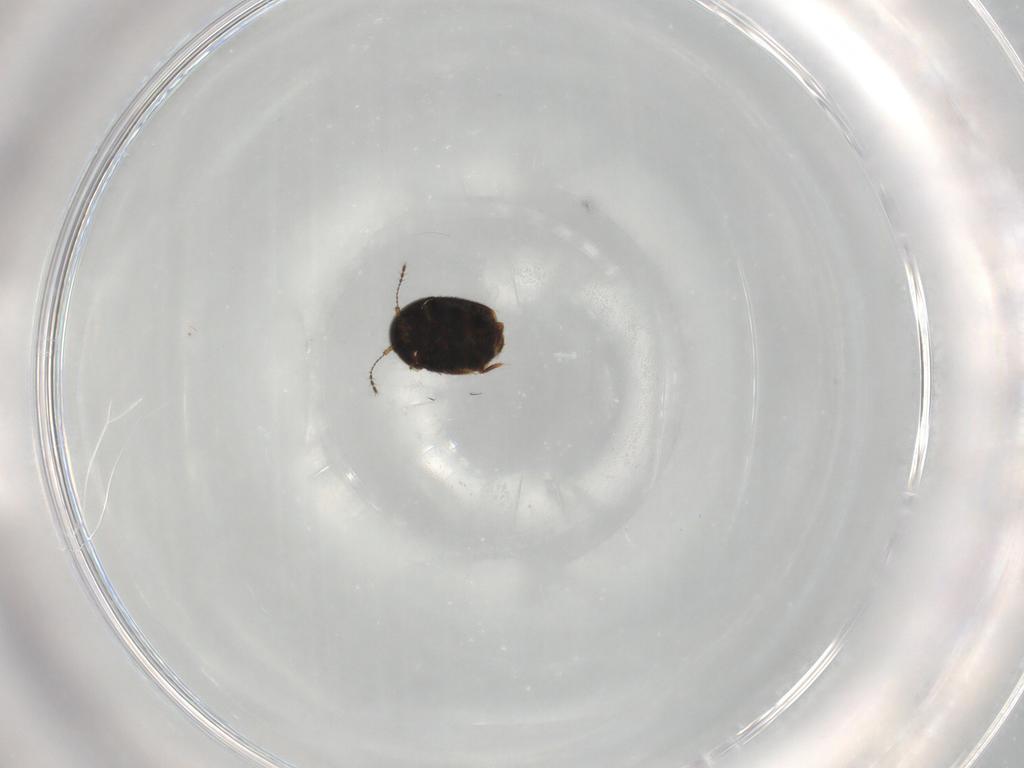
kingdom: Animalia
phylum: Arthropoda
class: Insecta
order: Coleoptera
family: Ptiliidae
